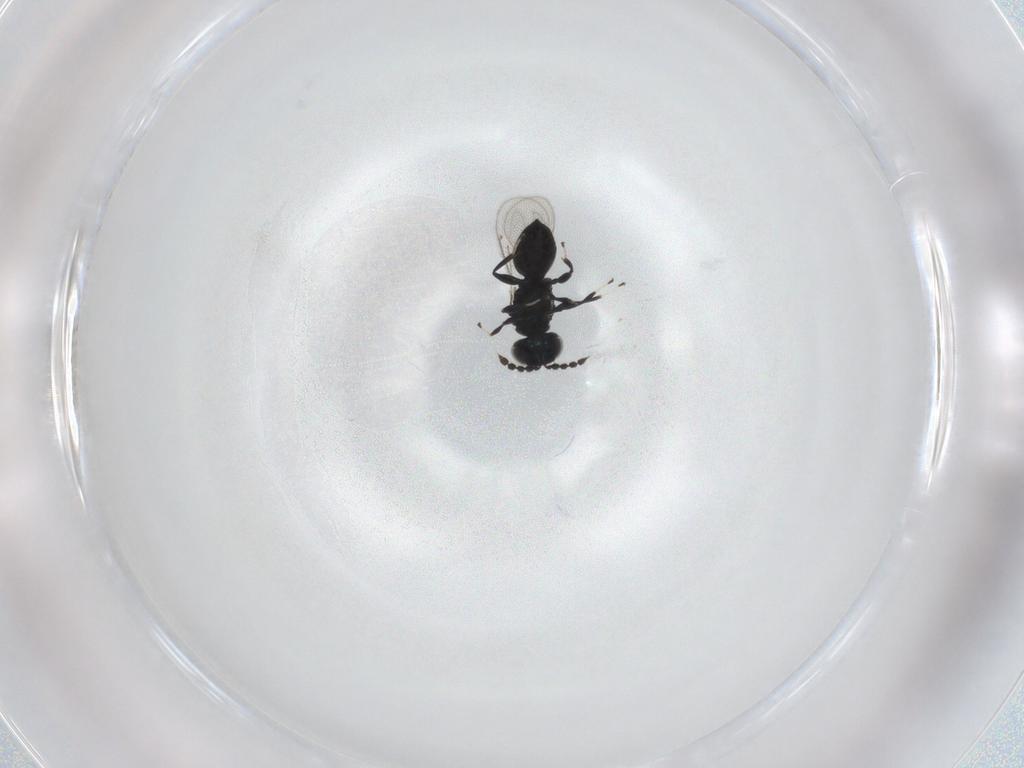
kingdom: Animalia
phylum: Arthropoda
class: Insecta
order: Hymenoptera
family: Eulophidae
